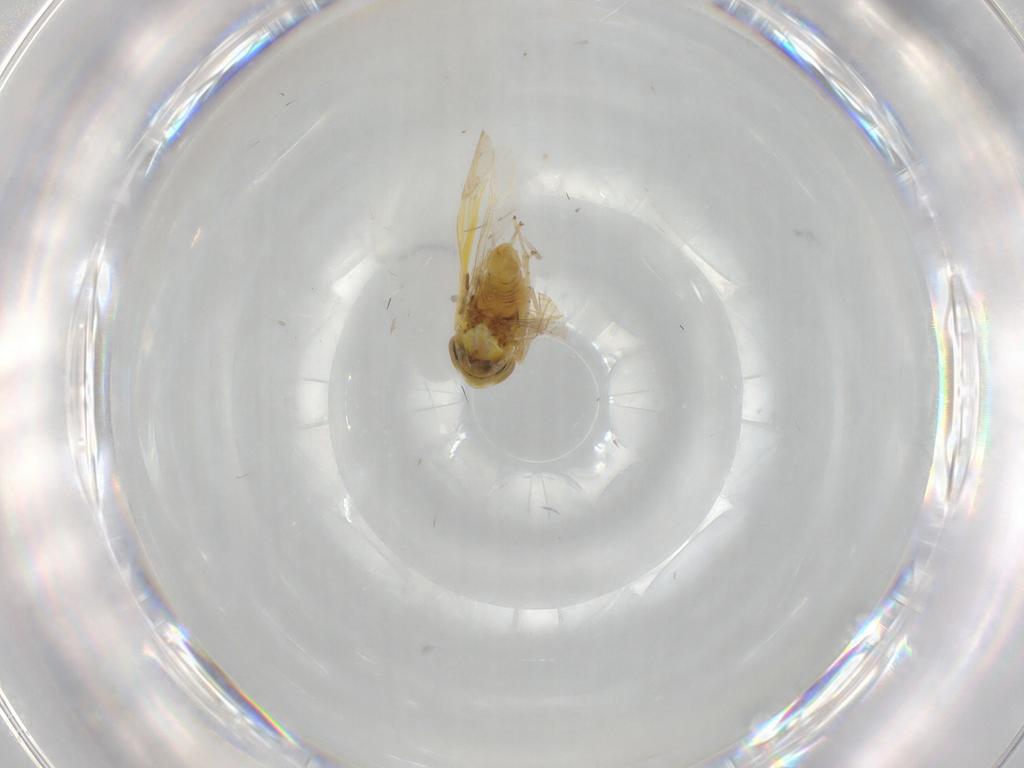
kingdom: Animalia
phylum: Arthropoda
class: Insecta
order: Hemiptera
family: Cicadellidae
